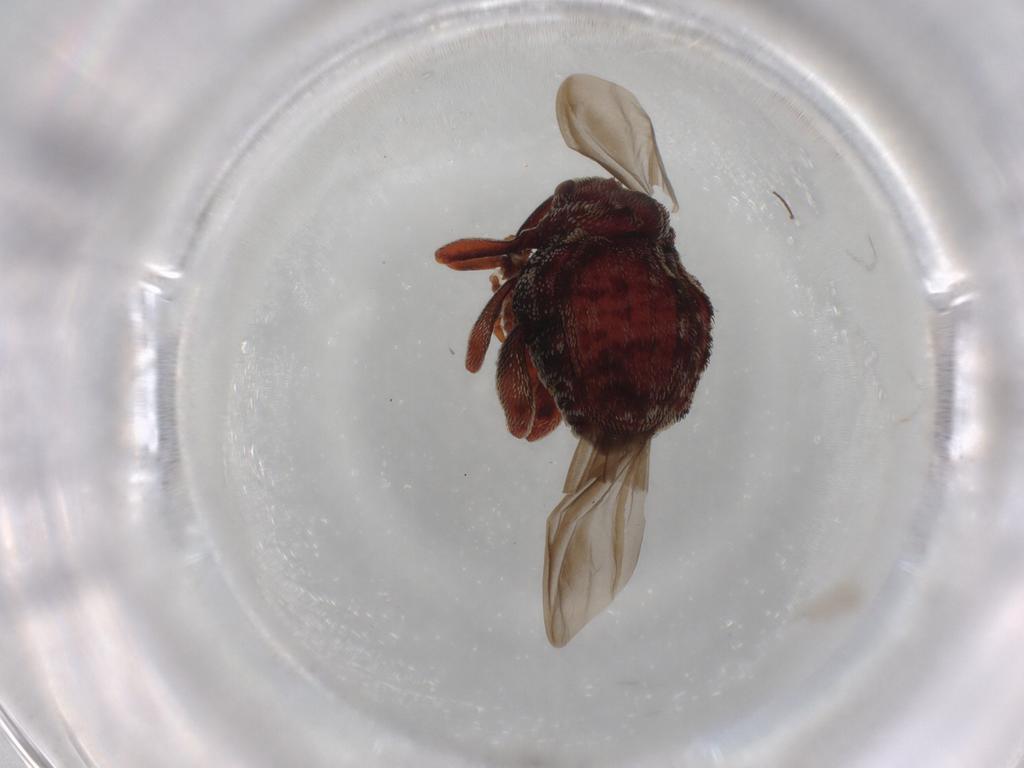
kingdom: Animalia
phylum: Arthropoda
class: Insecta
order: Coleoptera
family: Curculionidae
